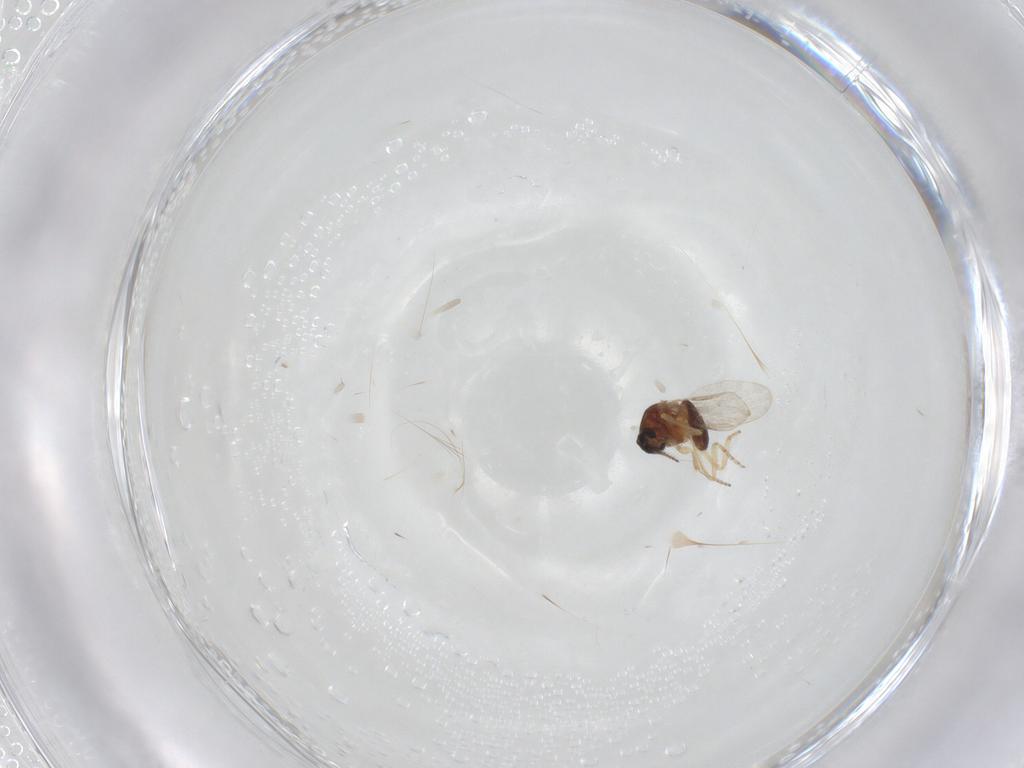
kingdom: Animalia
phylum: Arthropoda
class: Insecta
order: Diptera
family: Ceratopogonidae
